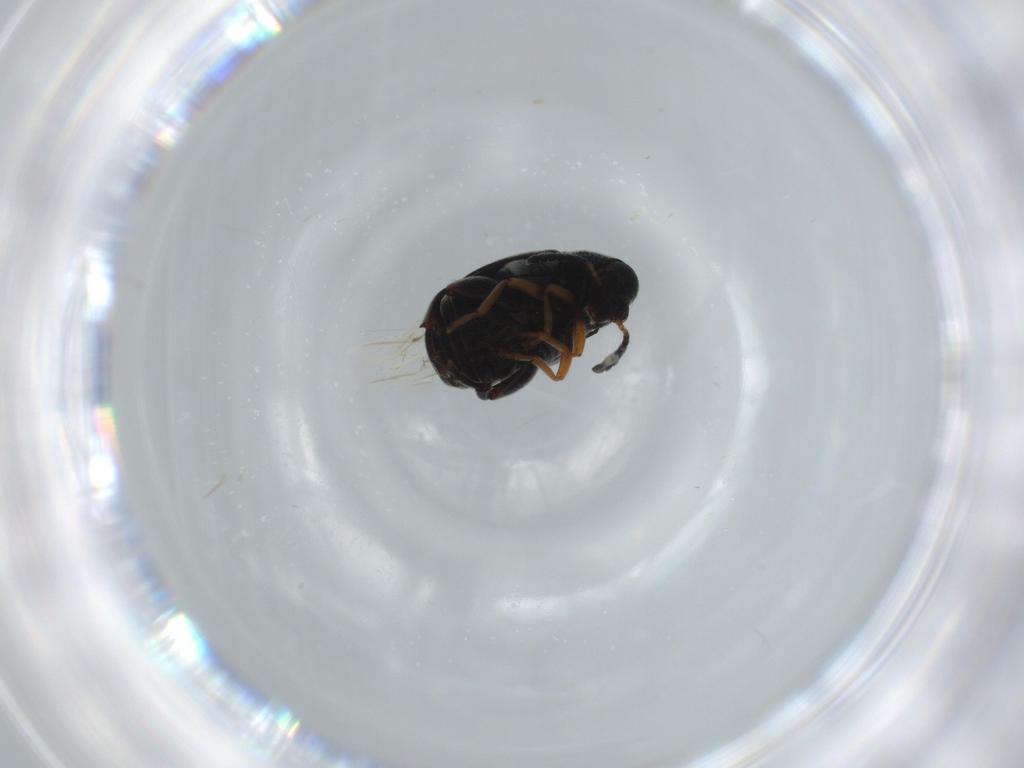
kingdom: Animalia
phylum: Arthropoda
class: Insecta
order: Coleoptera
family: Chrysomelidae
